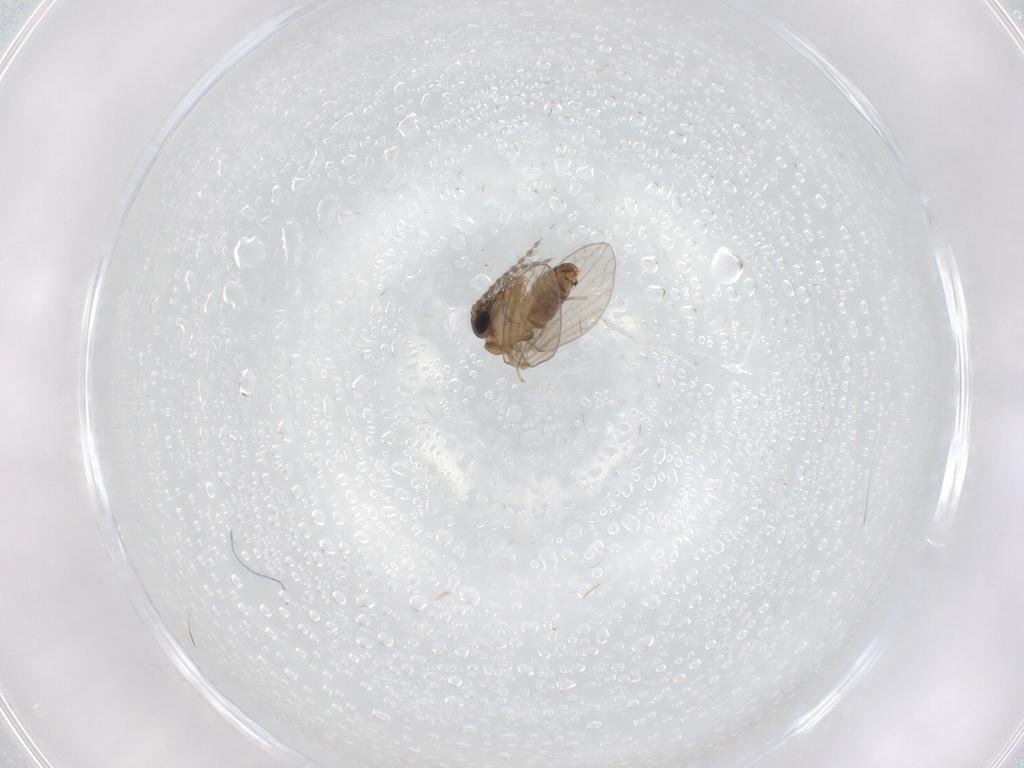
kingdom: Animalia
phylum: Arthropoda
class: Insecta
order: Diptera
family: Cecidomyiidae
